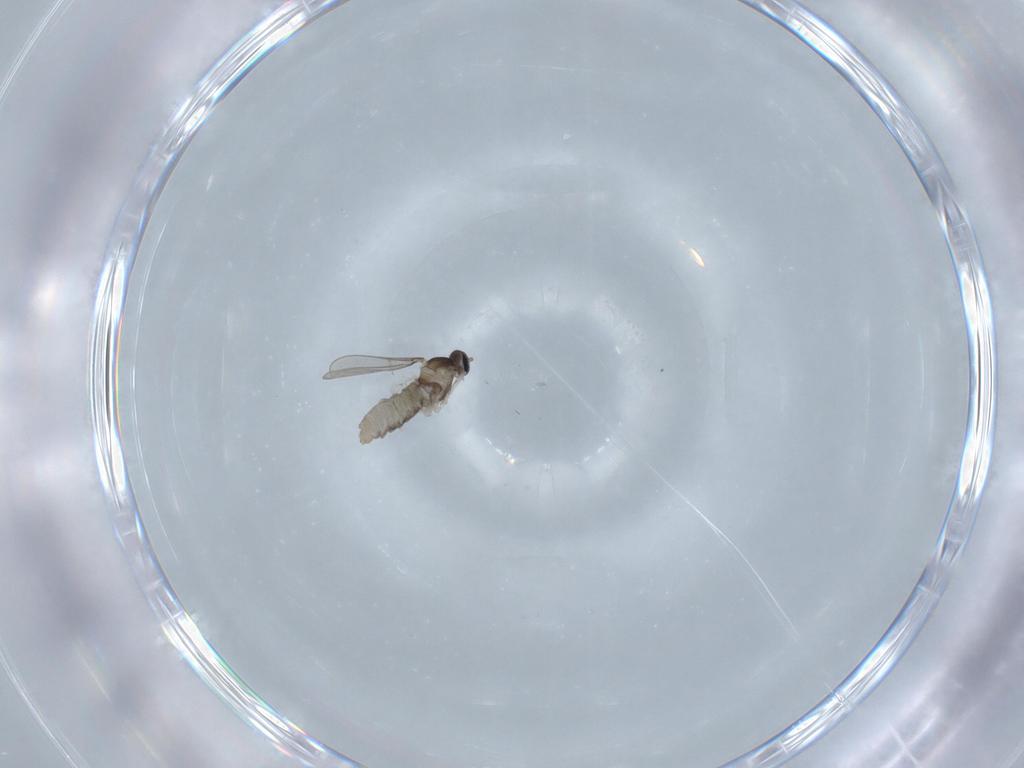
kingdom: Animalia
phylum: Arthropoda
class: Insecta
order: Diptera
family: Cecidomyiidae
